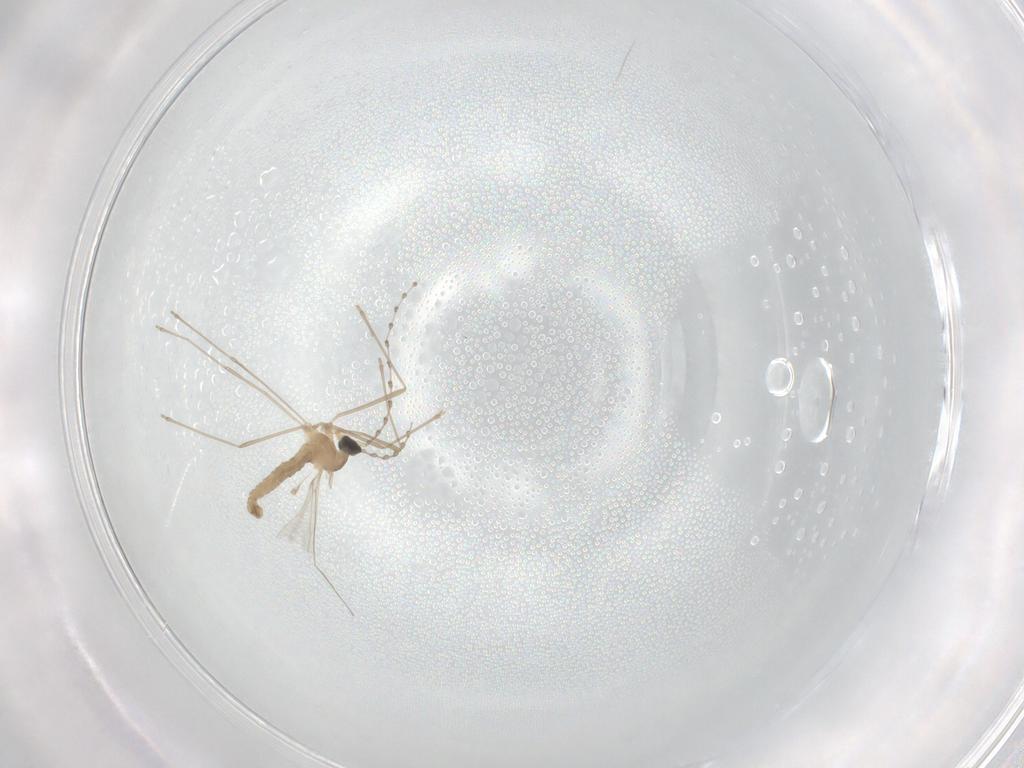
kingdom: Animalia
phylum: Arthropoda
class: Insecta
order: Diptera
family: Cecidomyiidae
